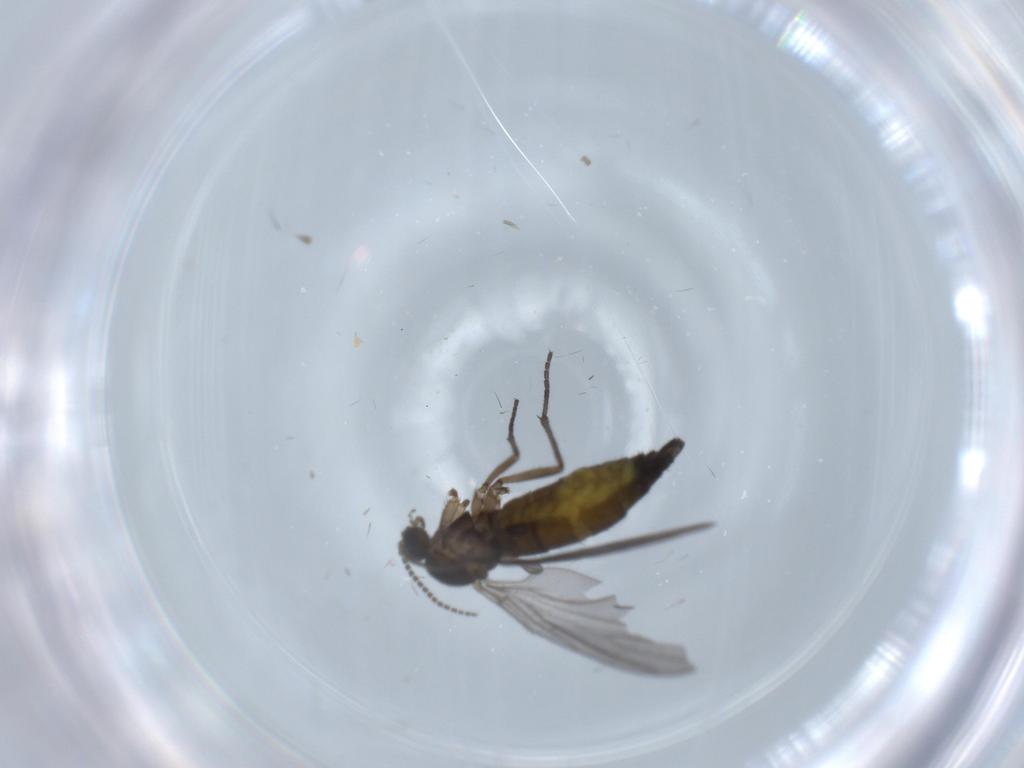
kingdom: Animalia
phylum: Arthropoda
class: Insecta
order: Diptera
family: Sciaridae
